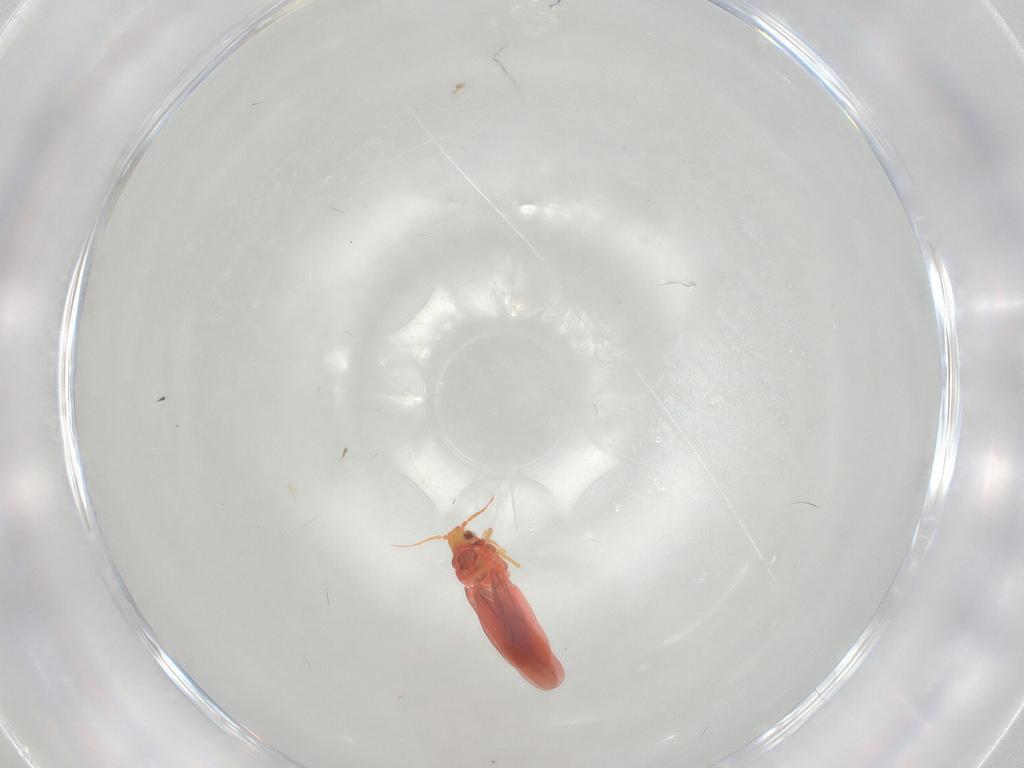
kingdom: Animalia
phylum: Arthropoda
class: Insecta
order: Hemiptera
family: Aleyrodidae
